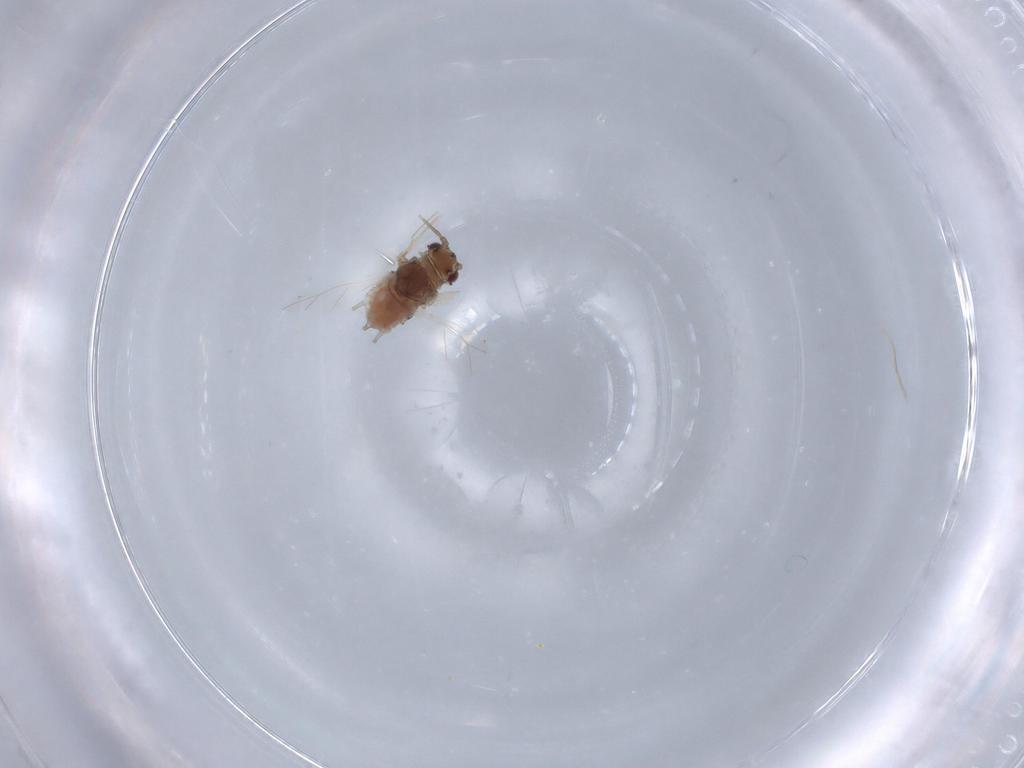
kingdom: Animalia
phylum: Arthropoda
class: Insecta
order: Hemiptera
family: Aphididae
